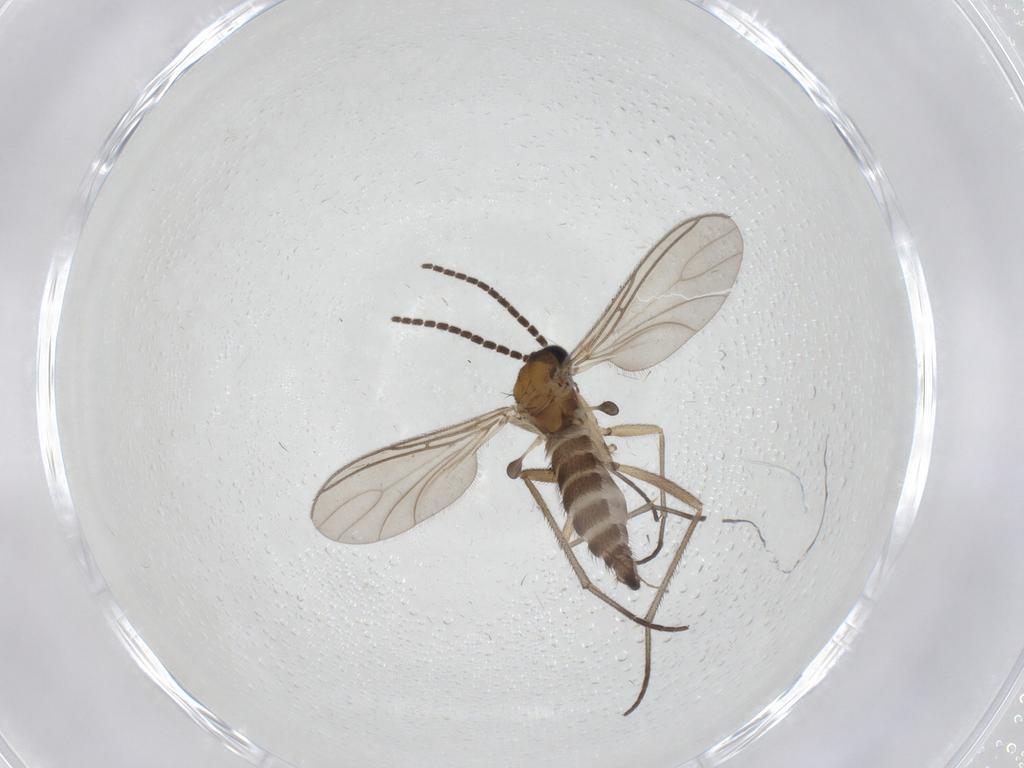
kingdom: Animalia
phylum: Arthropoda
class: Insecta
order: Diptera
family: Sciaridae
